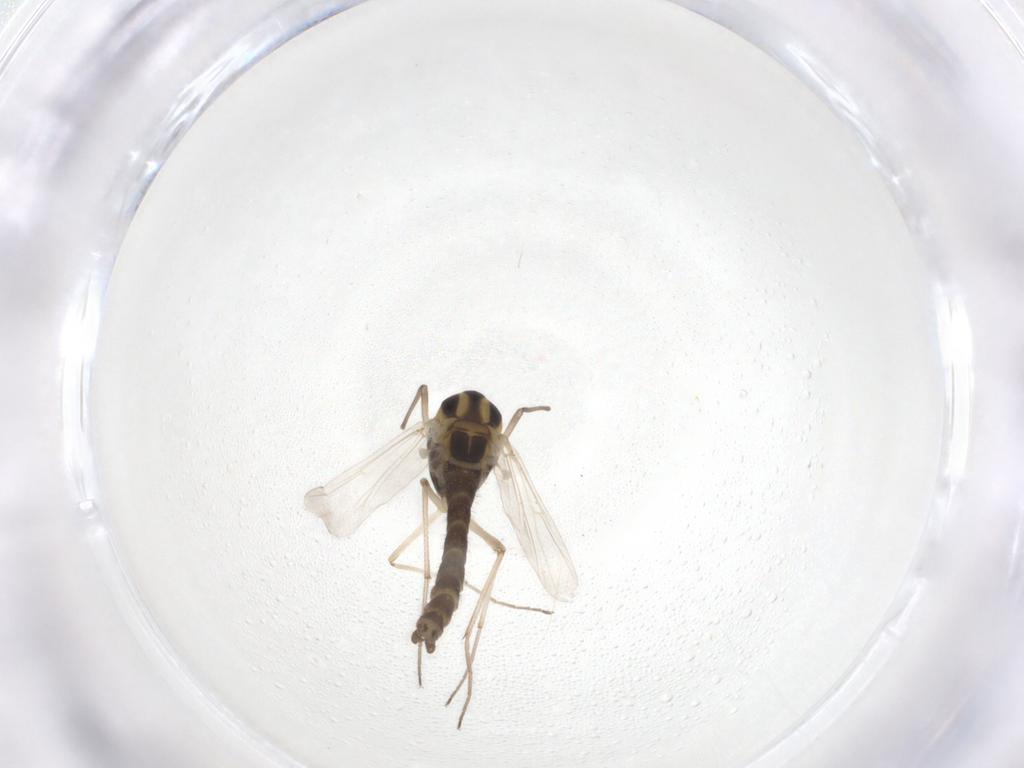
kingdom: Animalia
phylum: Arthropoda
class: Insecta
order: Diptera
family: Chironomidae
